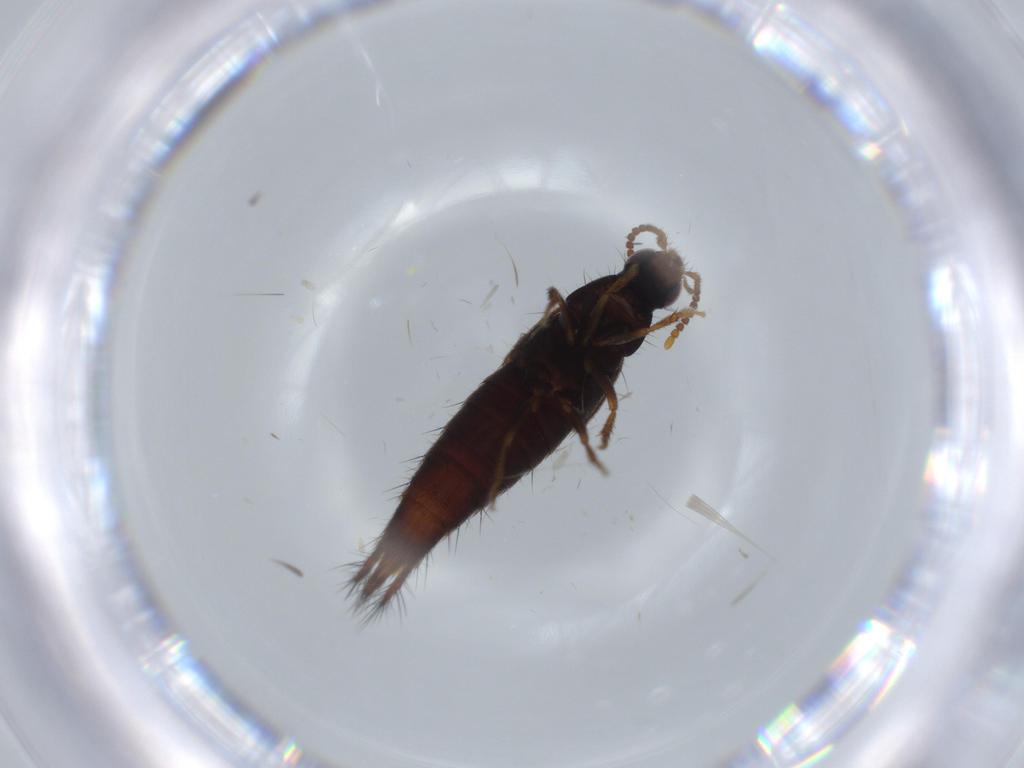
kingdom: Animalia
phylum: Arthropoda
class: Insecta
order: Coleoptera
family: Staphylinidae
